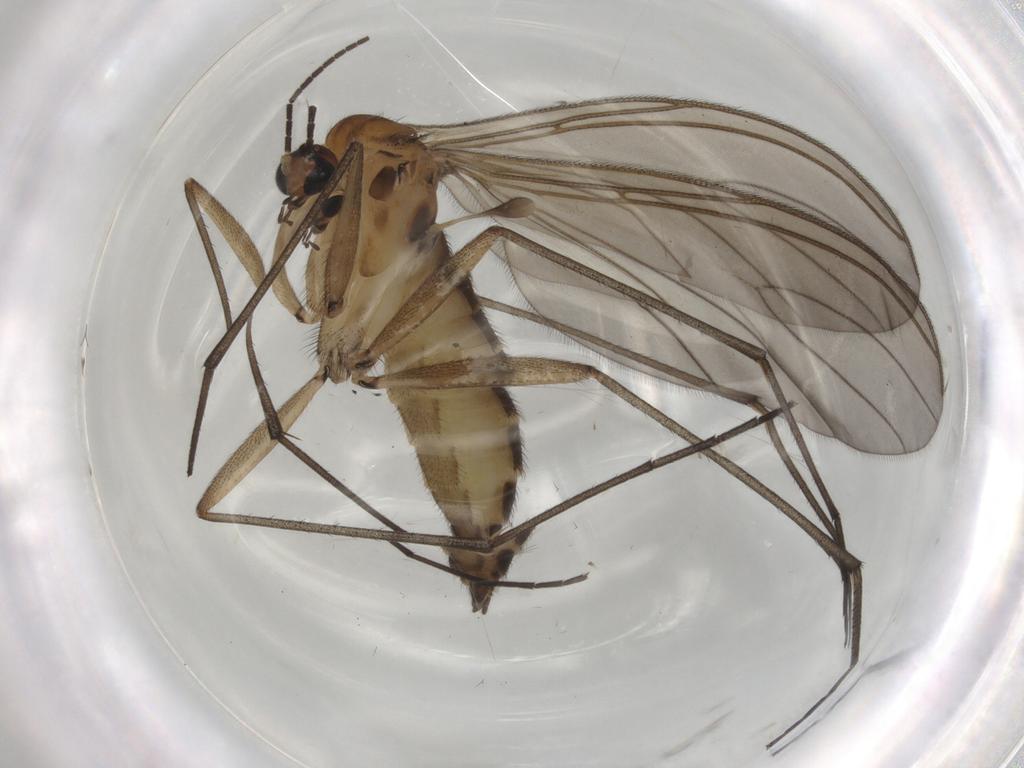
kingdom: Animalia
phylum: Arthropoda
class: Insecta
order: Diptera
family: Sciaridae
